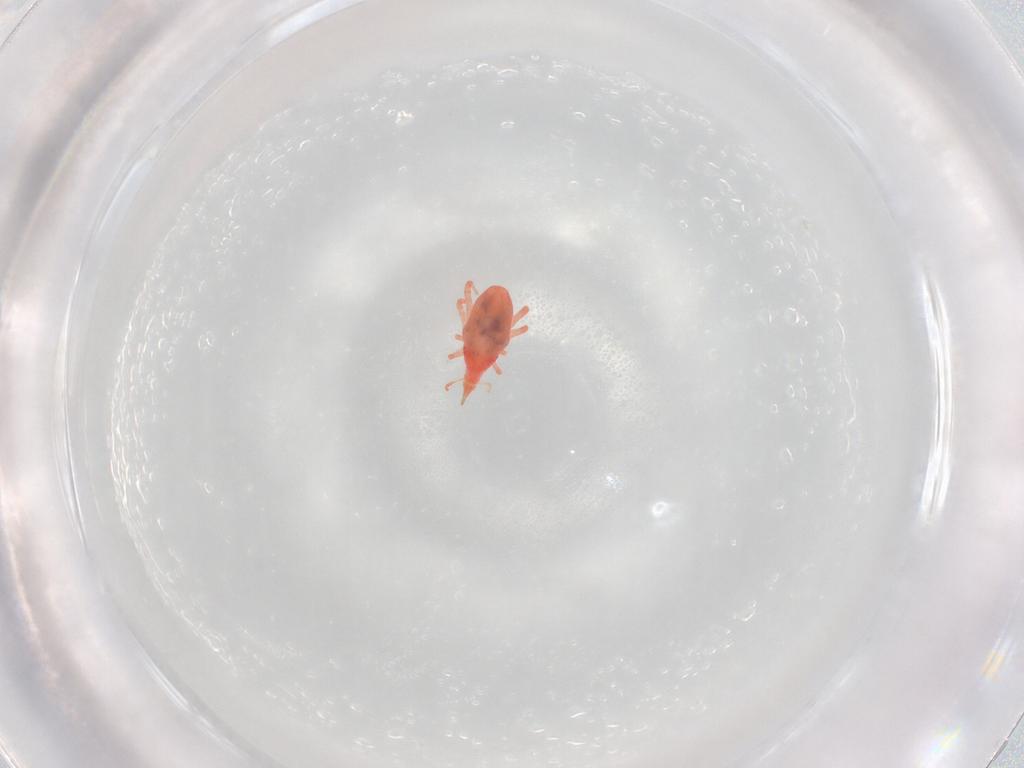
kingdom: Animalia
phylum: Arthropoda
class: Arachnida
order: Trombidiformes
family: Bdellidae
